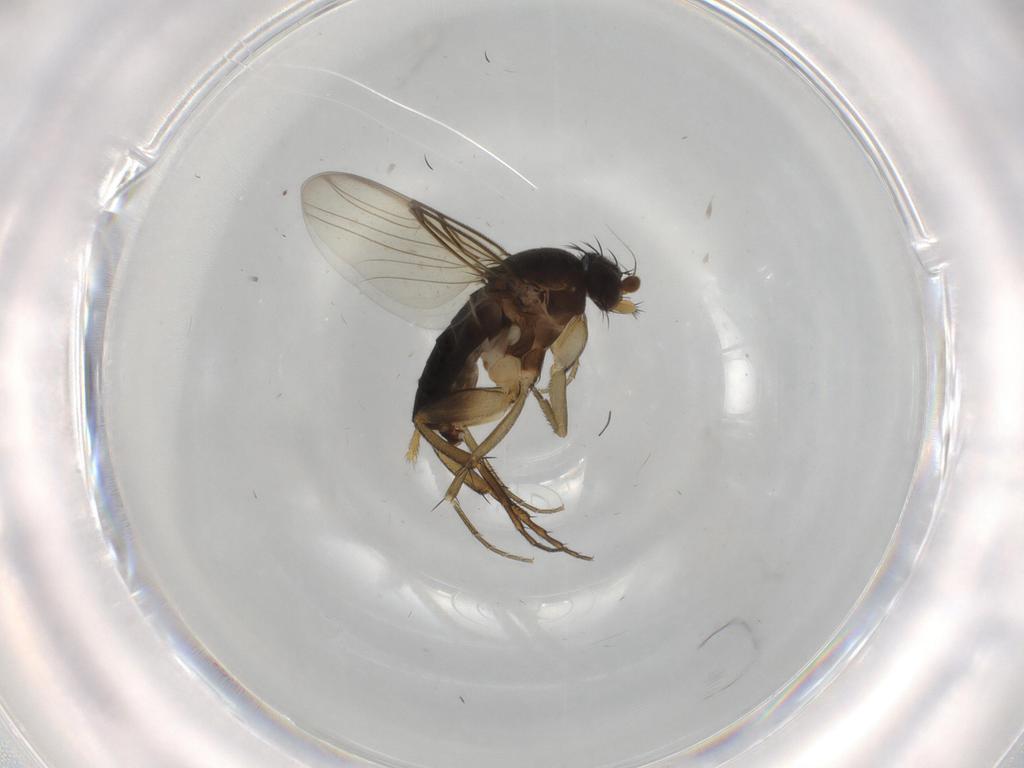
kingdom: Animalia
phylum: Arthropoda
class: Insecta
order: Diptera
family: Phoridae
